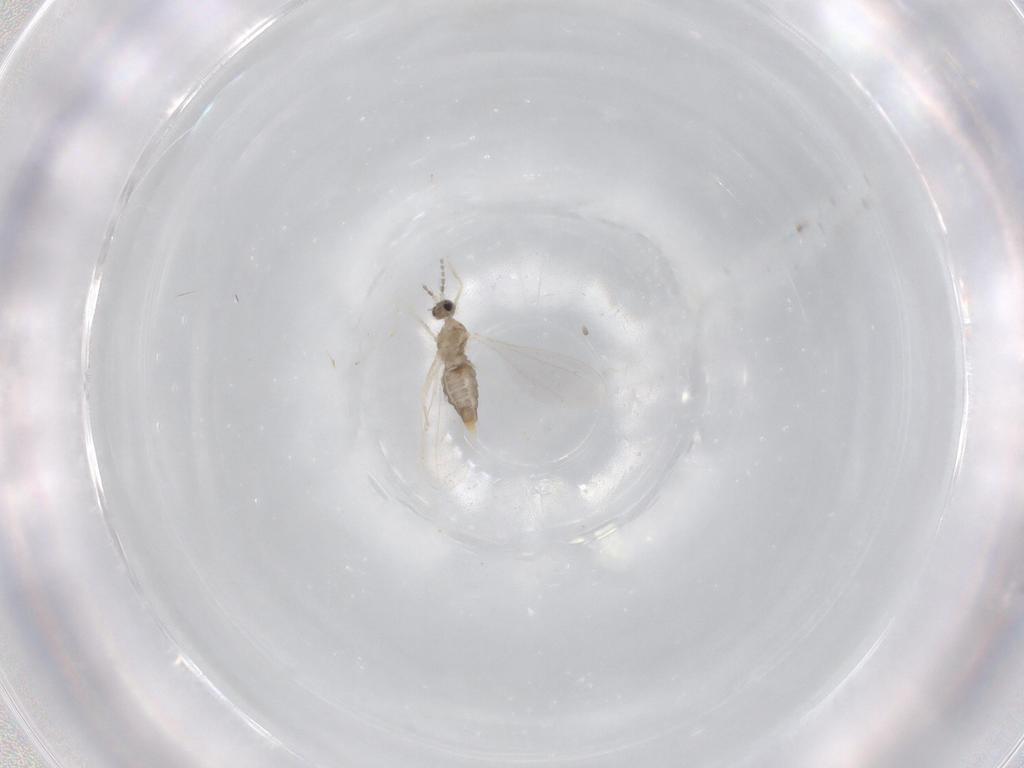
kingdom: Animalia
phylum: Arthropoda
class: Insecta
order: Diptera
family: Cecidomyiidae
